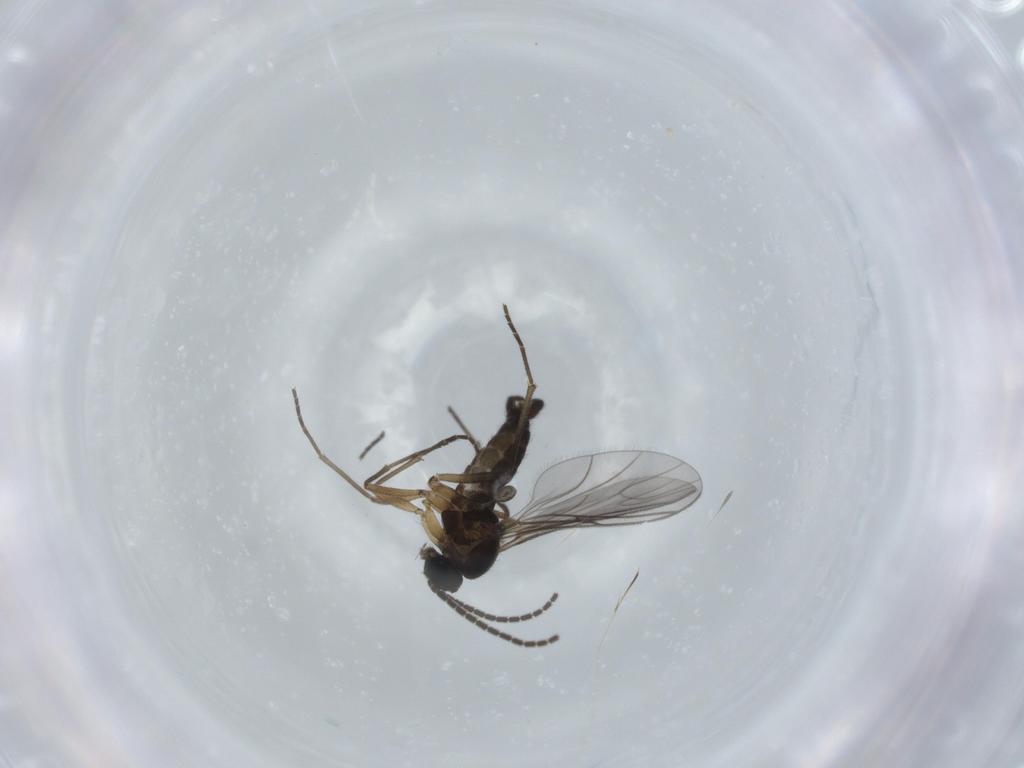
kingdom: Animalia
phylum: Arthropoda
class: Insecta
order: Diptera
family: Sciaridae
